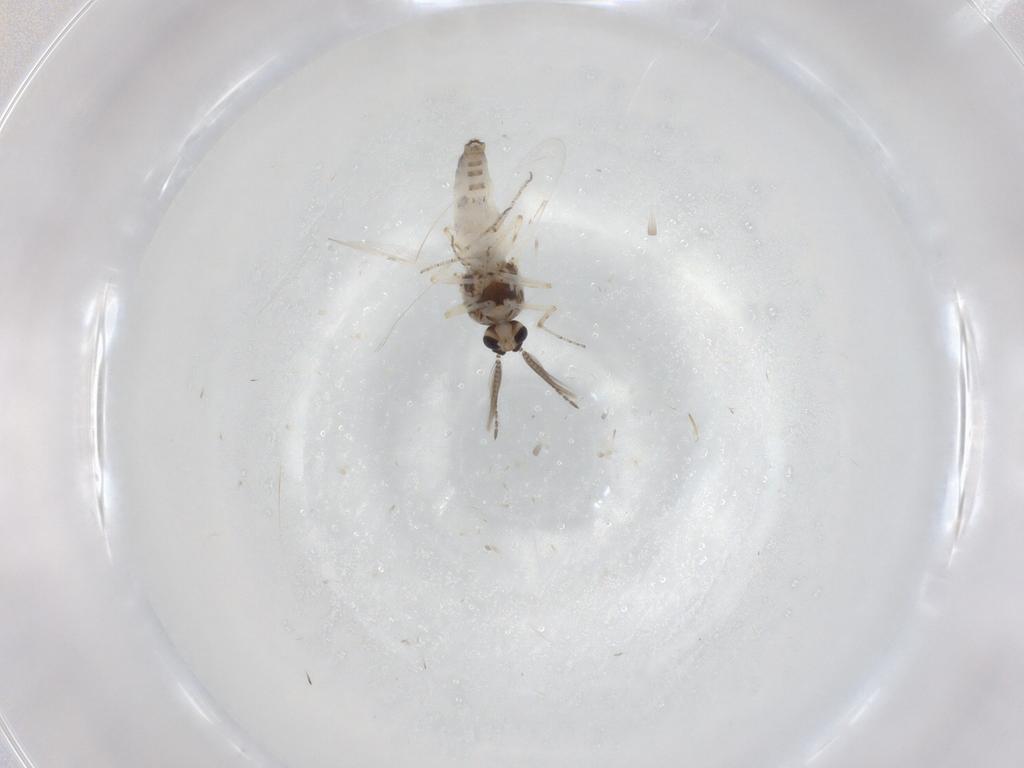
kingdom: Animalia
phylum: Arthropoda
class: Insecta
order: Diptera
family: Ceratopogonidae
